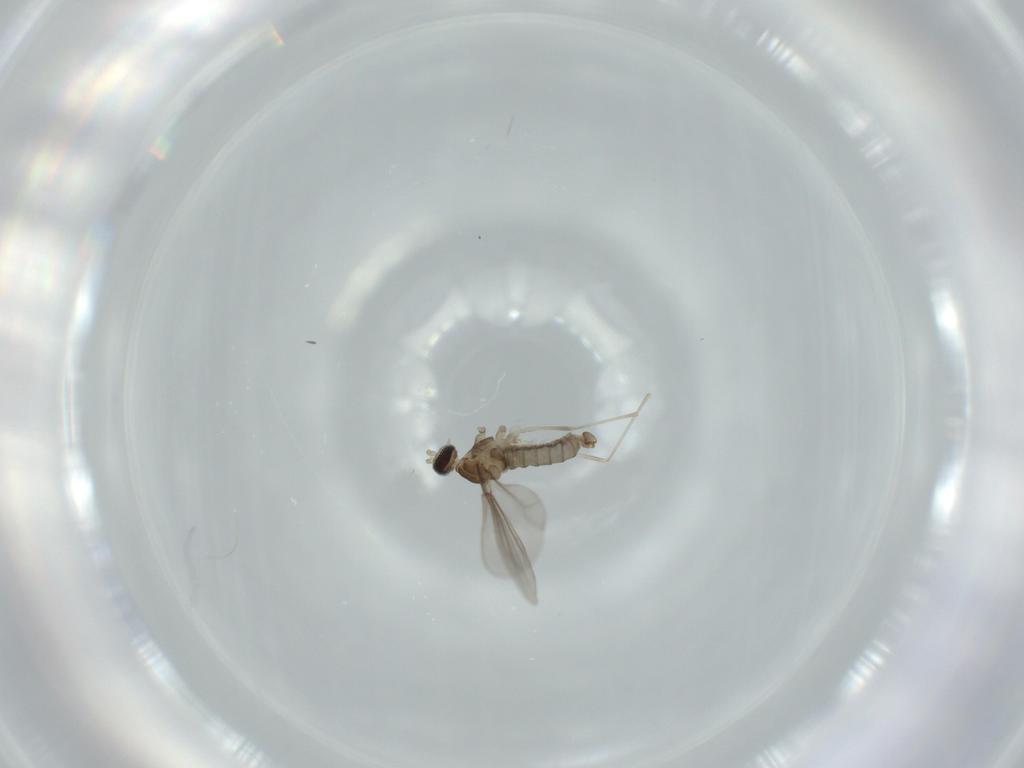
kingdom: Animalia
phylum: Arthropoda
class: Insecta
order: Diptera
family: Cecidomyiidae
